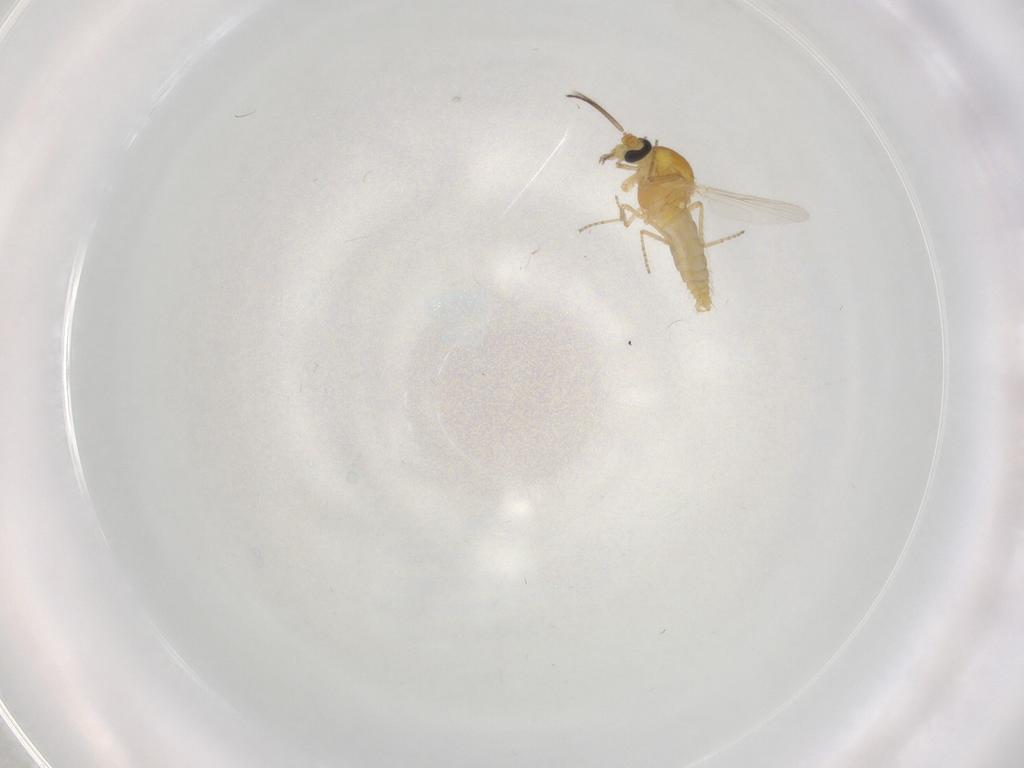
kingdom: Animalia
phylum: Arthropoda
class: Insecta
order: Diptera
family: Ceratopogonidae
